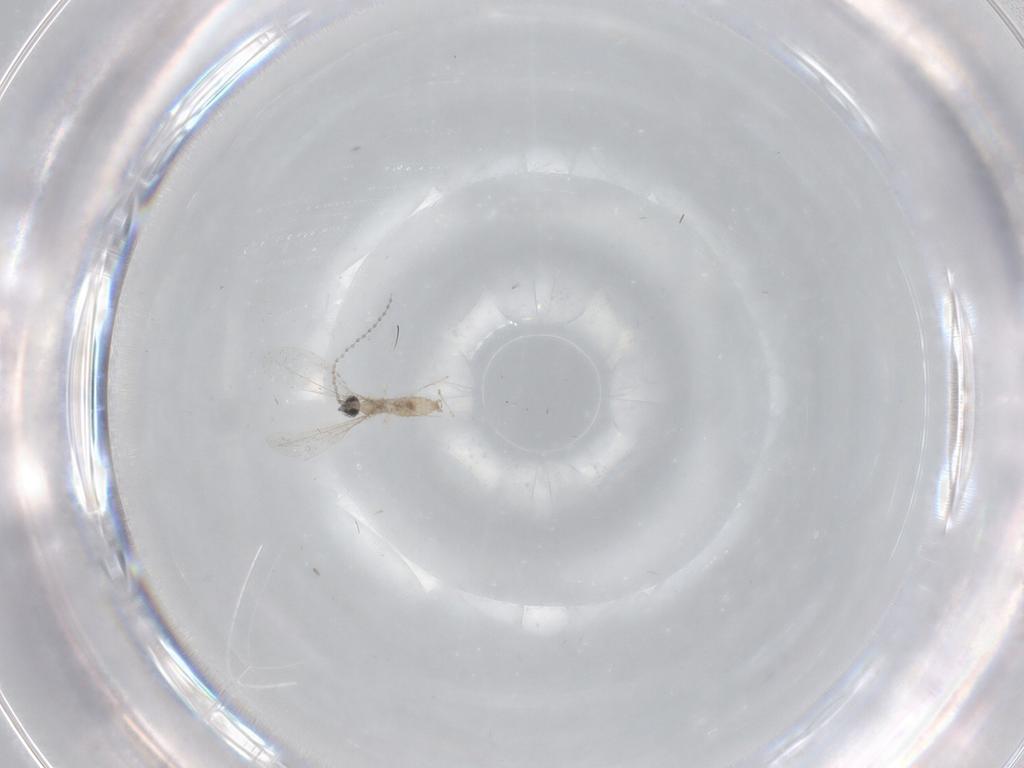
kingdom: Animalia
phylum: Arthropoda
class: Insecta
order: Diptera
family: Cecidomyiidae
